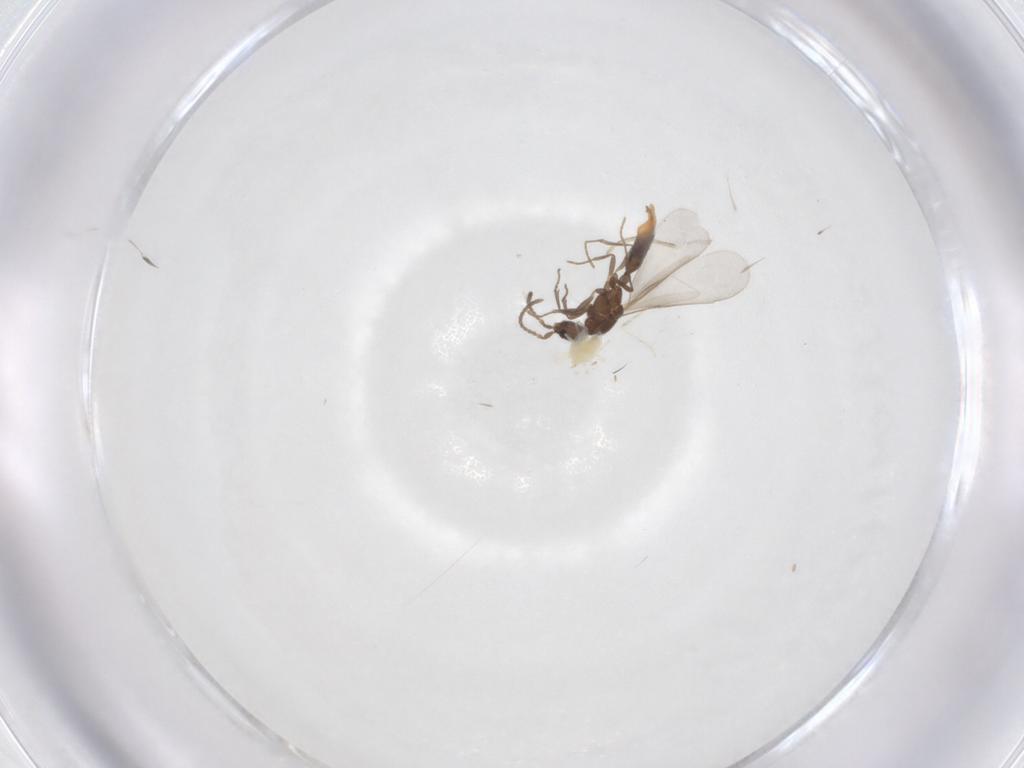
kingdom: Animalia
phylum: Arthropoda
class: Insecta
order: Hymenoptera
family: Formicidae
